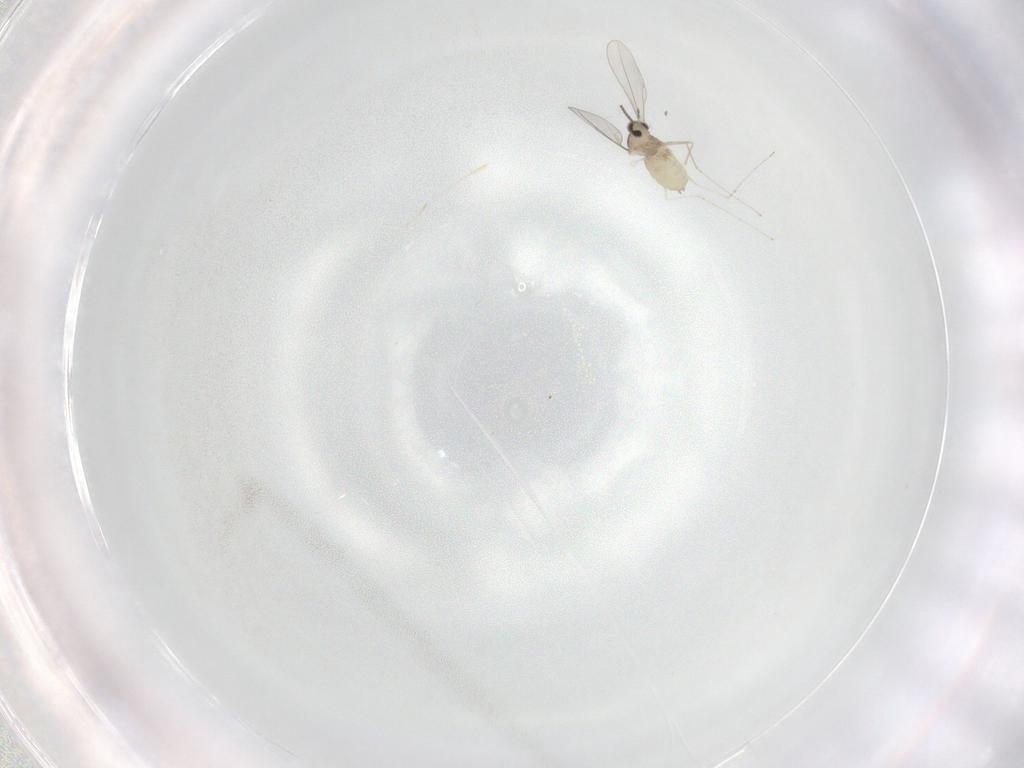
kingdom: Animalia
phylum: Arthropoda
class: Insecta
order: Diptera
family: Cecidomyiidae
